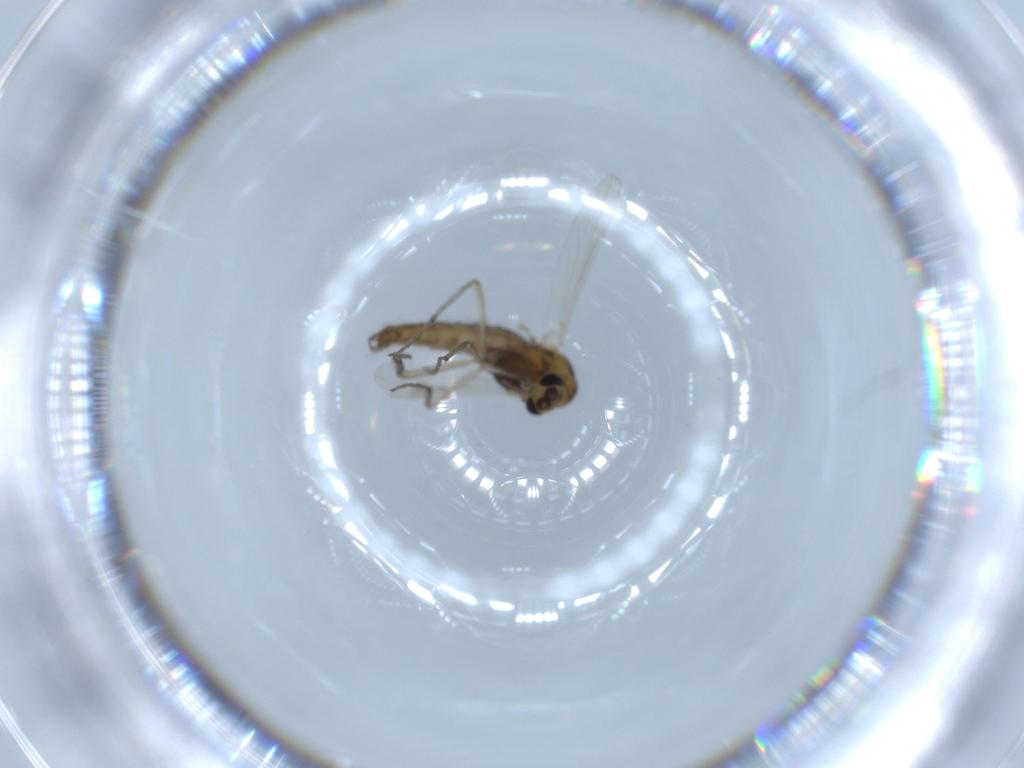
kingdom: Animalia
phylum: Arthropoda
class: Insecta
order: Diptera
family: Chironomidae
